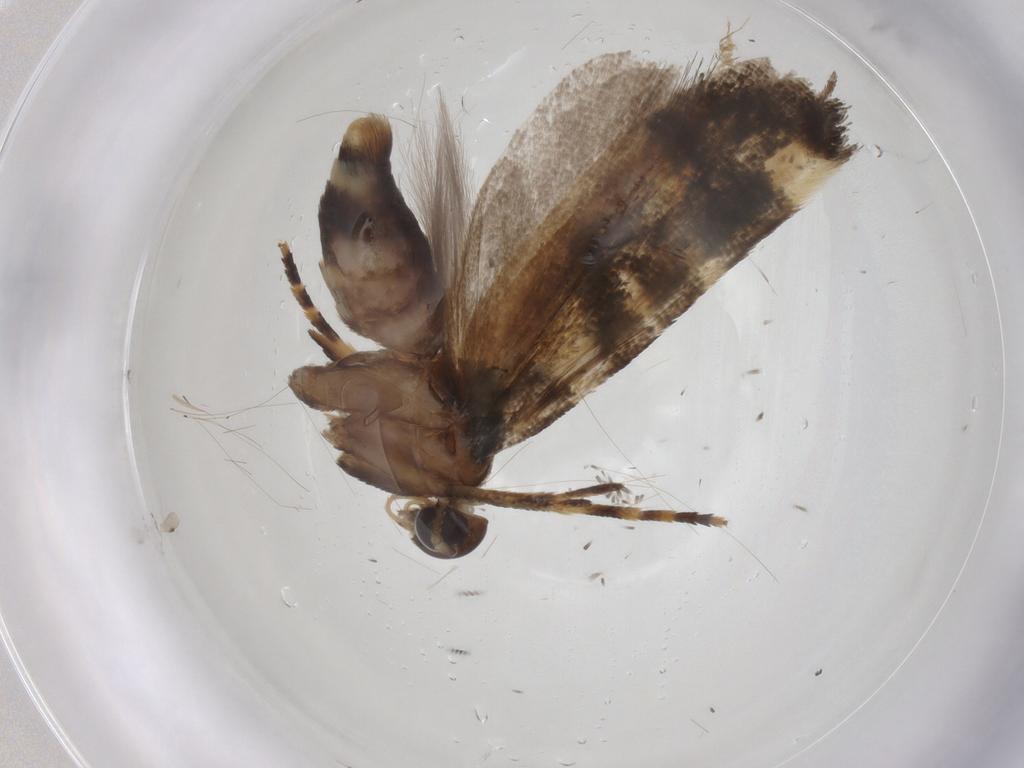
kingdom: Animalia
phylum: Arthropoda
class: Insecta
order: Lepidoptera
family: Gelechiidae
